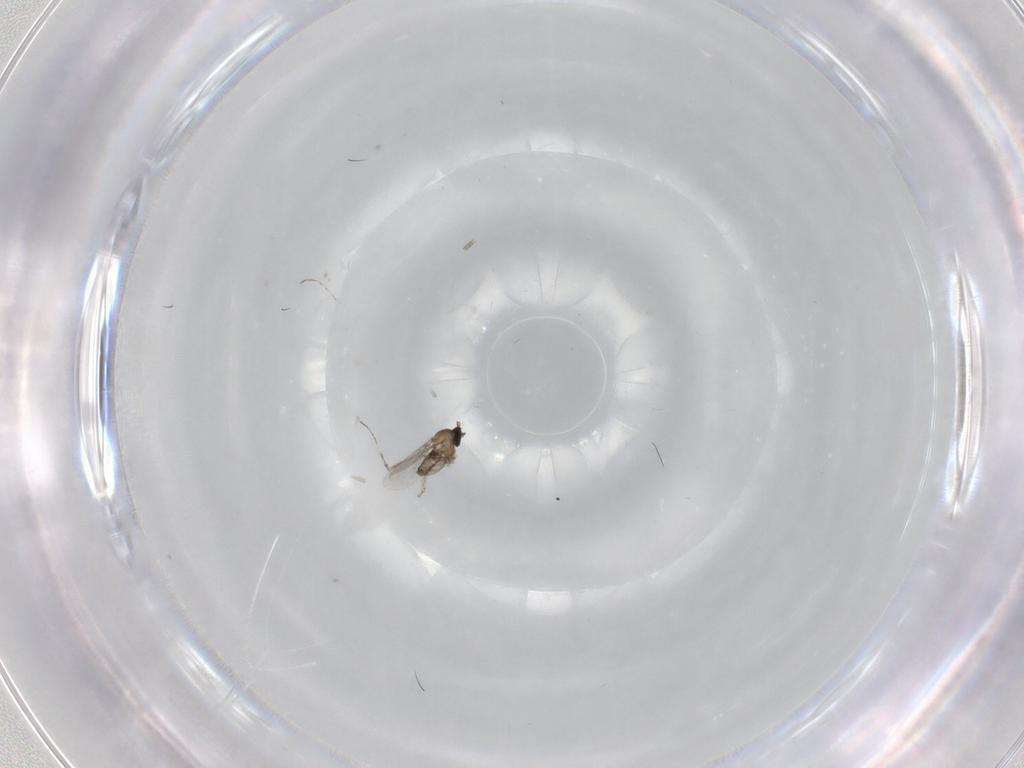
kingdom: Animalia
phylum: Arthropoda
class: Insecta
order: Diptera
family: Cecidomyiidae
